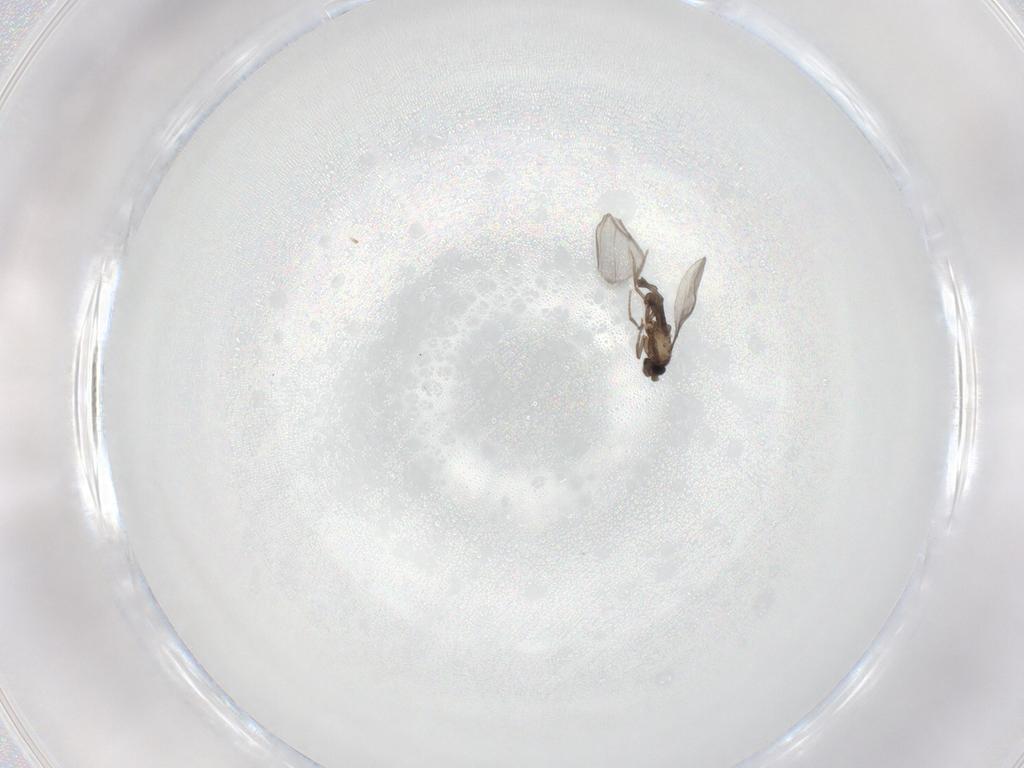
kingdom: Animalia
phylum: Arthropoda
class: Insecta
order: Diptera
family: Phoridae
